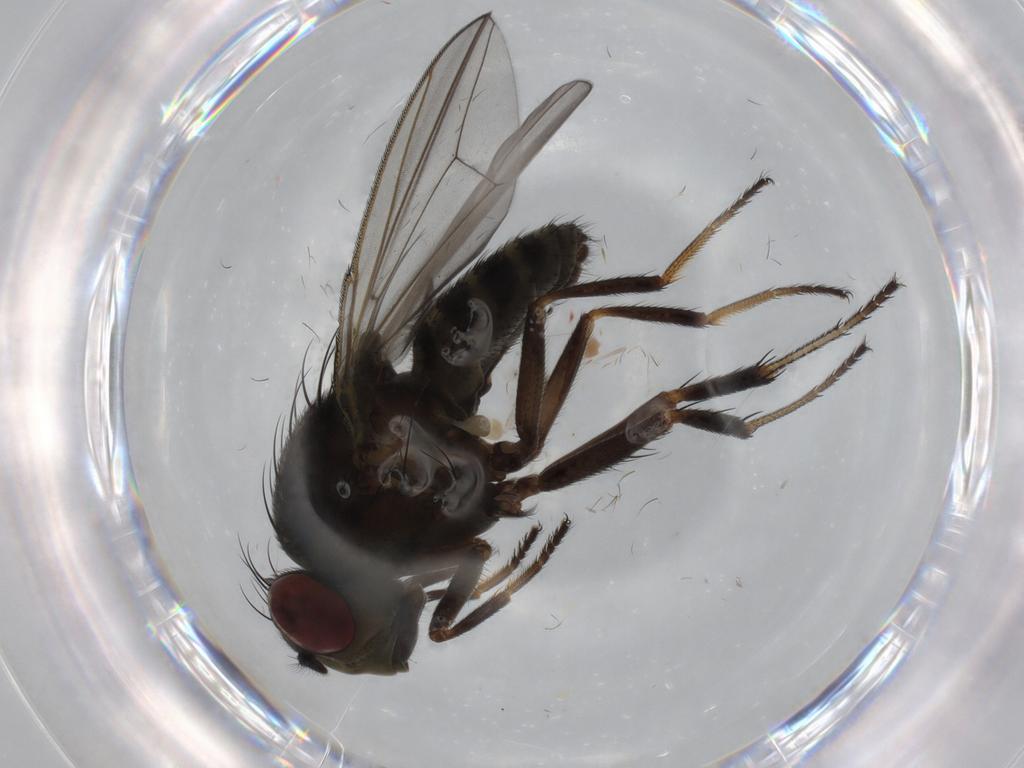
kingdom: Animalia
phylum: Arthropoda
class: Insecta
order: Diptera
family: Ephydridae
